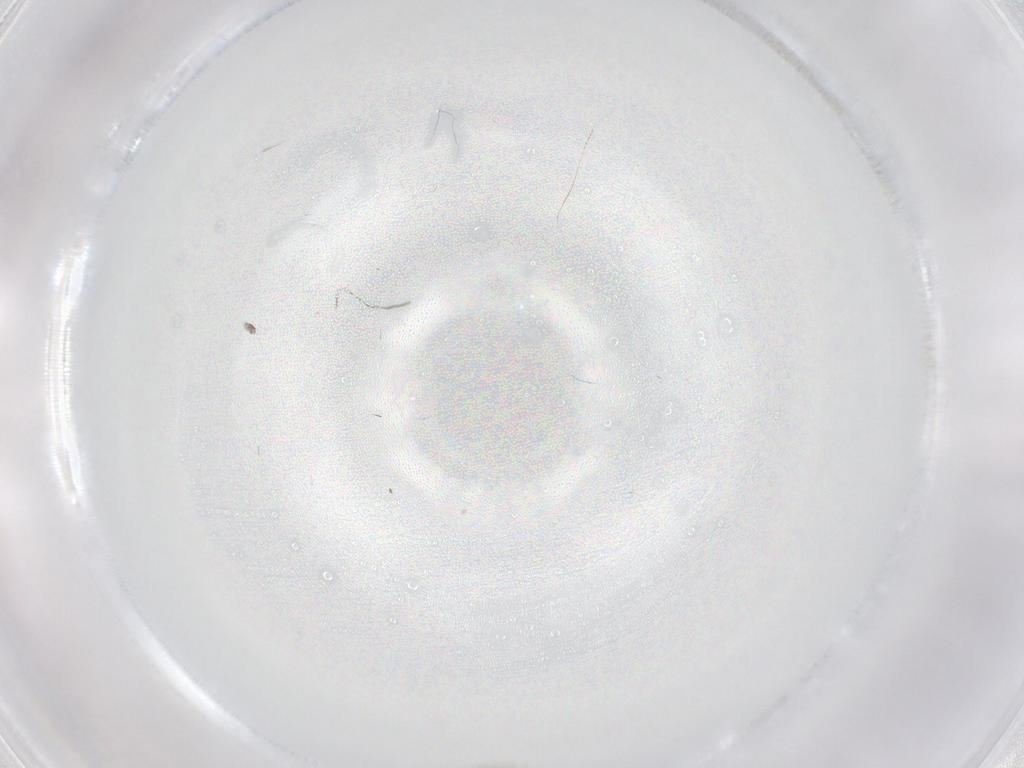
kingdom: Animalia
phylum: Arthropoda
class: Insecta
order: Diptera
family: Ceratopogonidae
